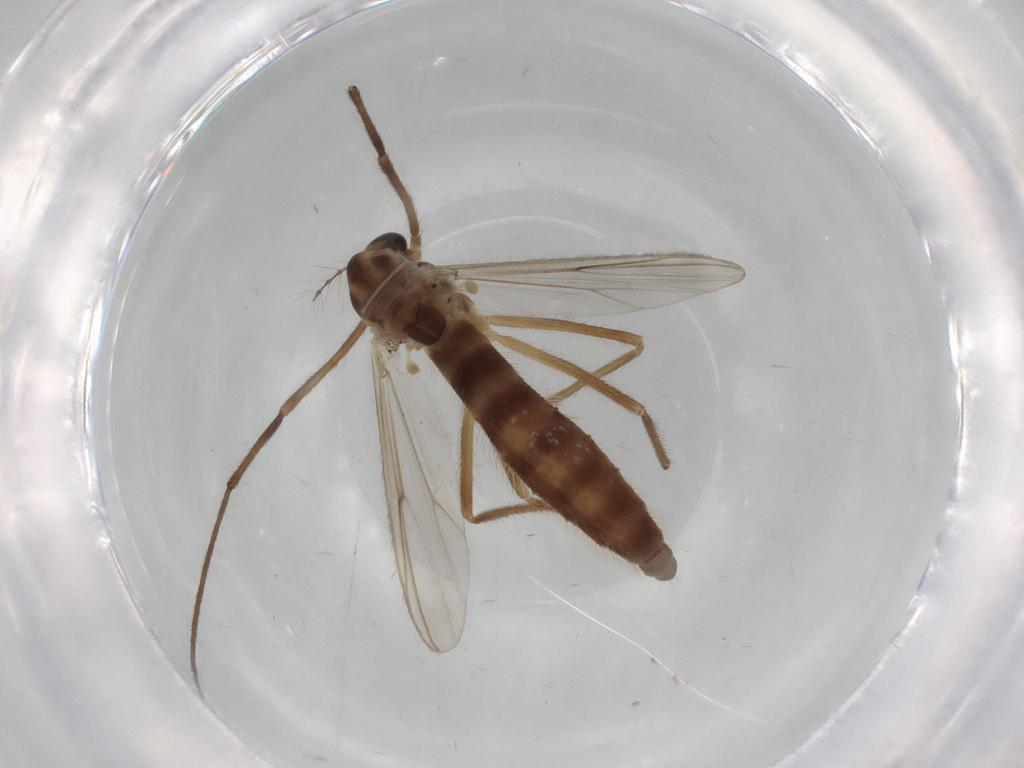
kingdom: Animalia
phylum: Arthropoda
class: Insecta
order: Diptera
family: Chironomidae
